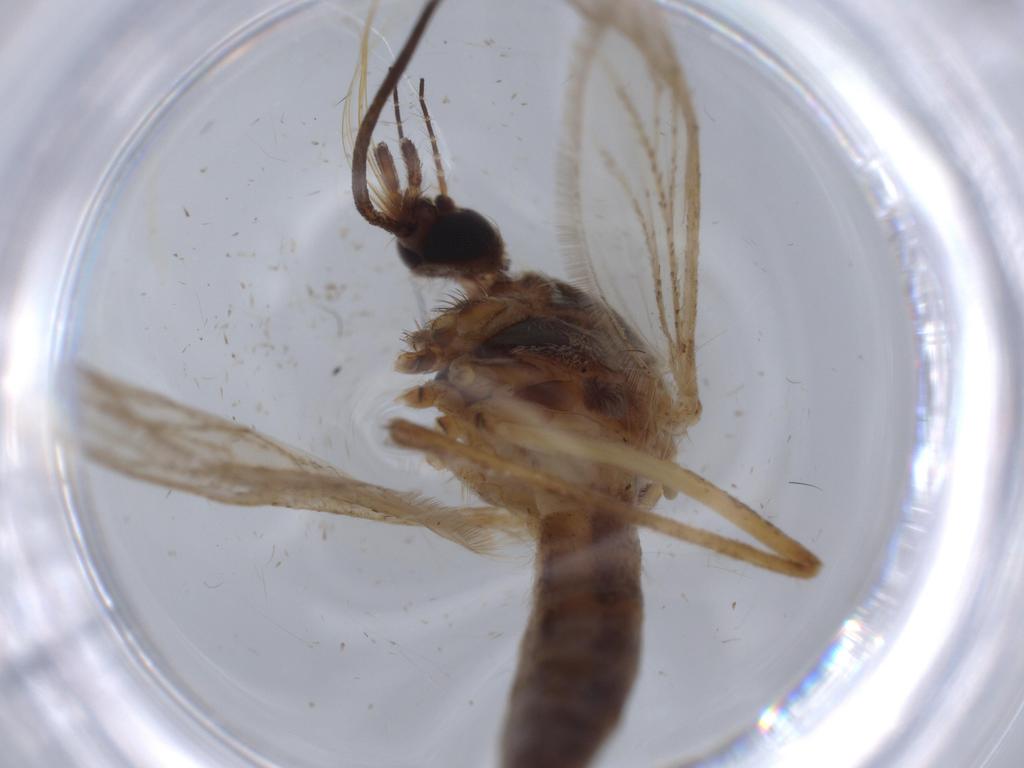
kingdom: Animalia
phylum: Arthropoda
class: Insecta
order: Diptera
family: Culicidae
